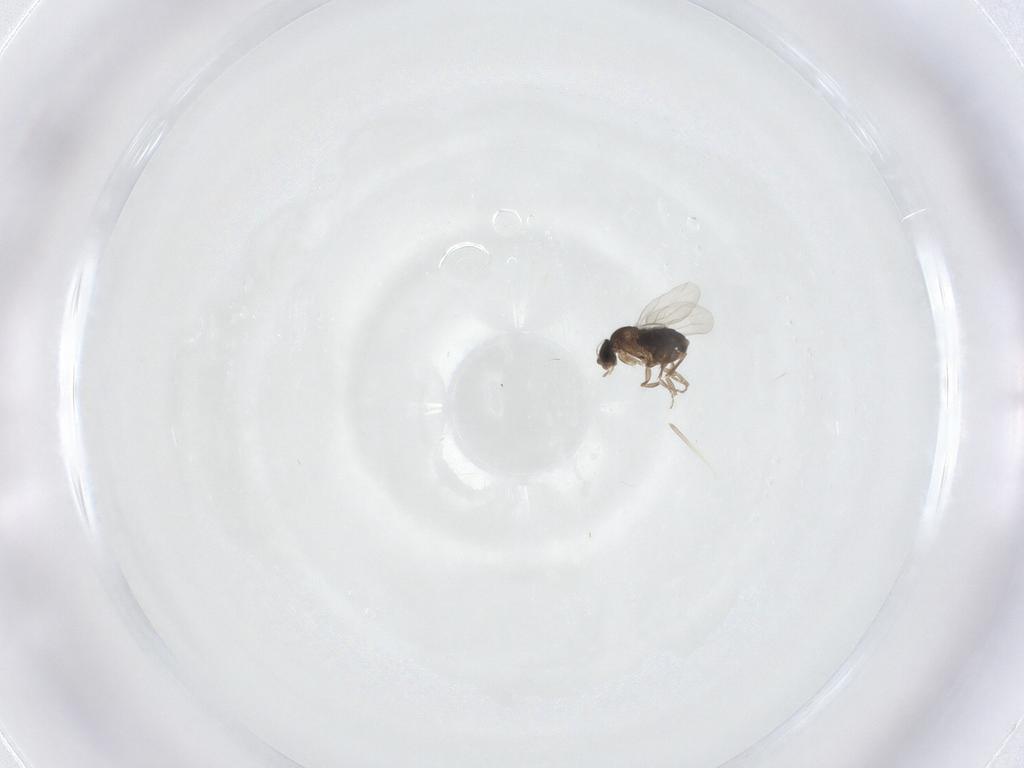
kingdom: Animalia
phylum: Arthropoda
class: Insecta
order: Diptera
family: Phoridae
